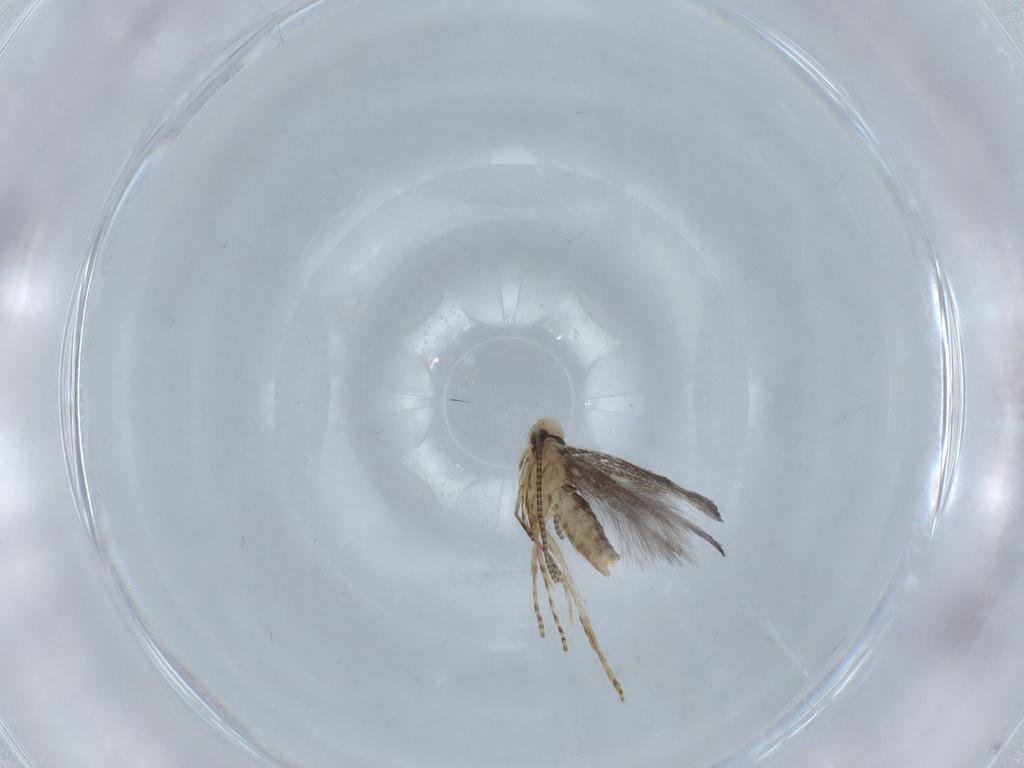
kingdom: Animalia
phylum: Arthropoda
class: Insecta
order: Lepidoptera
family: Gracillariidae
